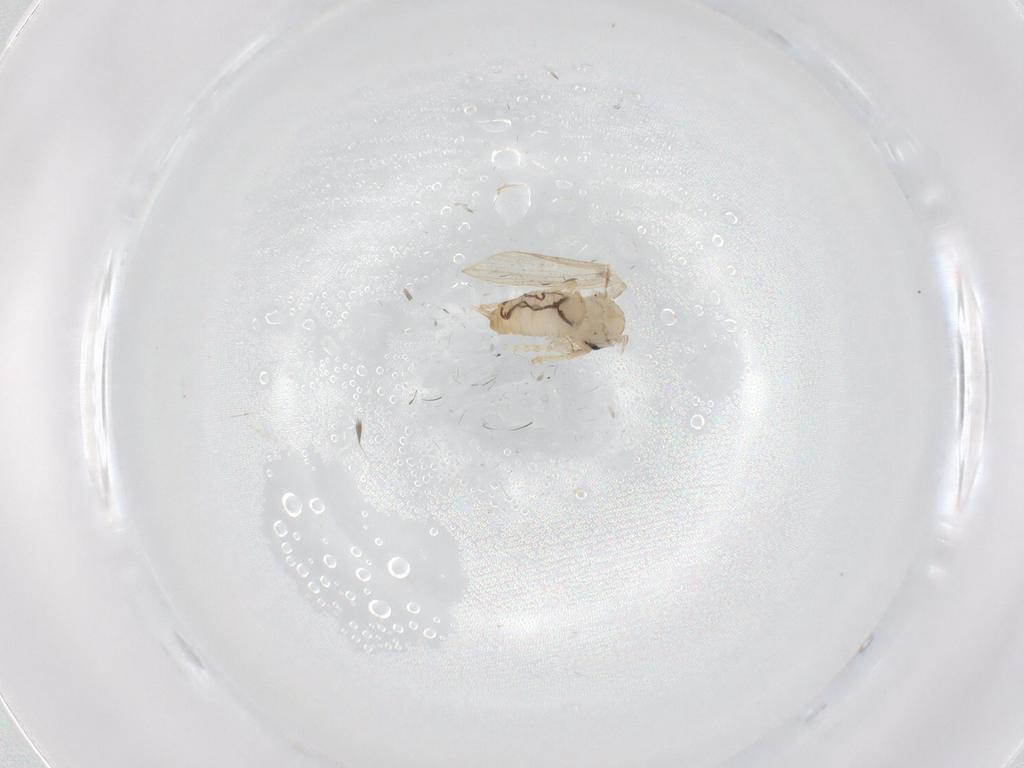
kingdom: Animalia
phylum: Arthropoda
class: Insecta
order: Diptera
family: Psychodidae
